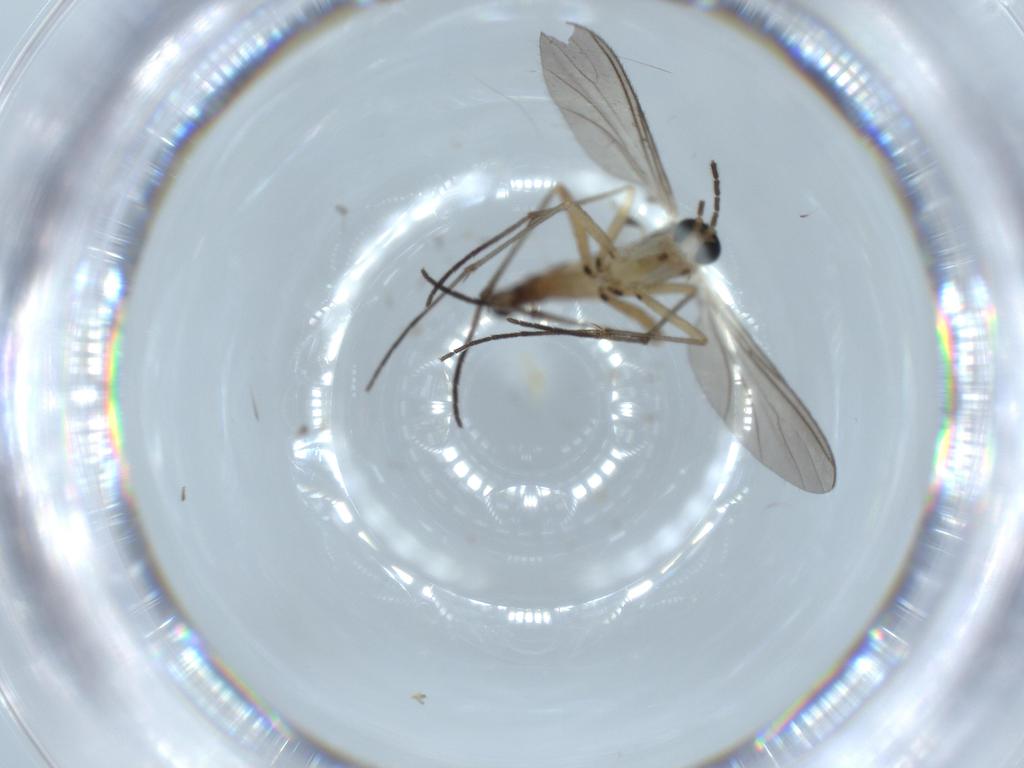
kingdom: Animalia
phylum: Arthropoda
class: Insecta
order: Diptera
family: Sciaridae
